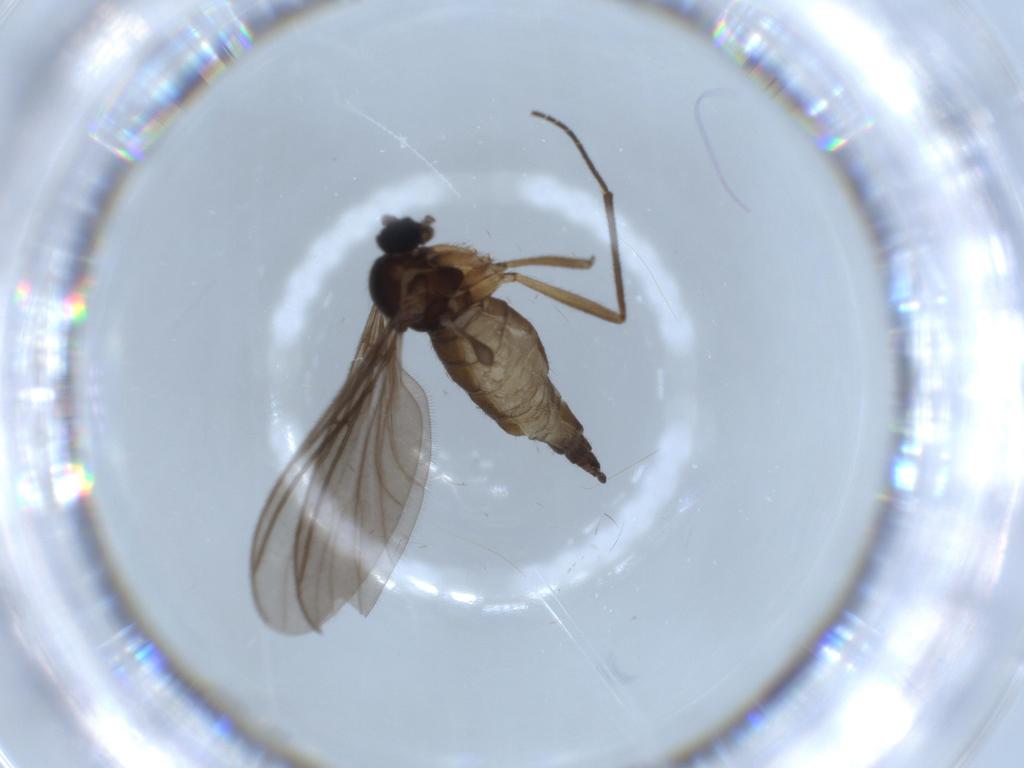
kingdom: Animalia
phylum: Arthropoda
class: Insecta
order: Diptera
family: Sciaridae
